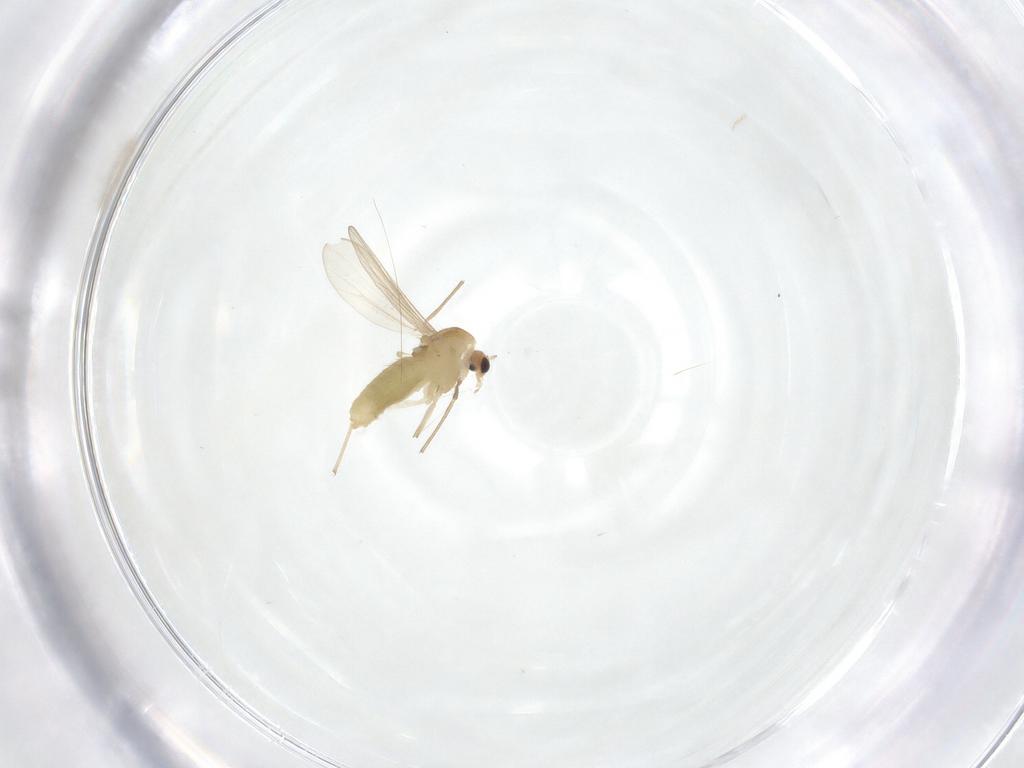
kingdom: Animalia
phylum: Arthropoda
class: Insecta
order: Diptera
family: Chironomidae
